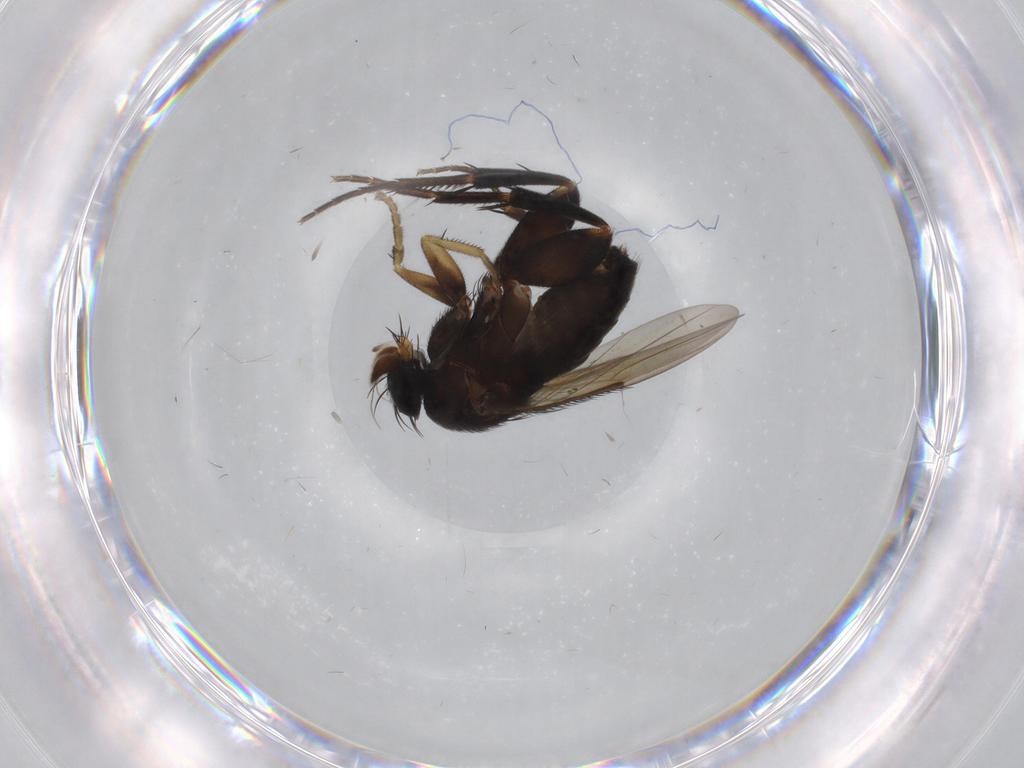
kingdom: Animalia
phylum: Arthropoda
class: Insecta
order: Diptera
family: Phoridae
